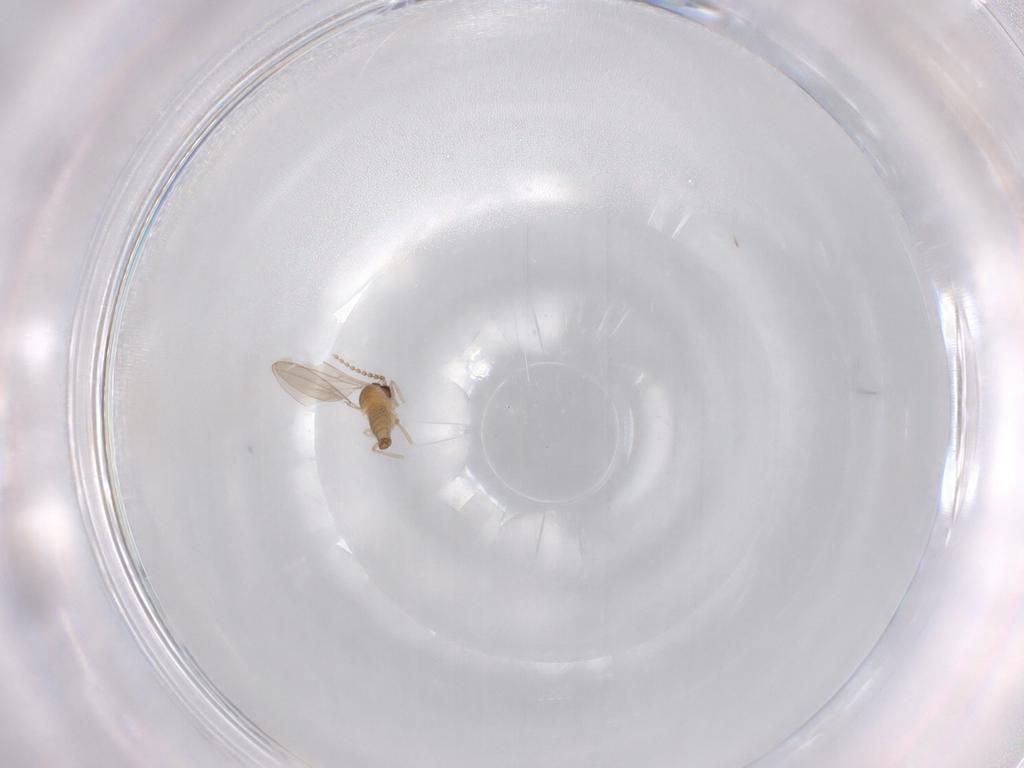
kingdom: Animalia
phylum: Arthropoda
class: Insecta
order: Diptera
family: Cecidomyiidae
